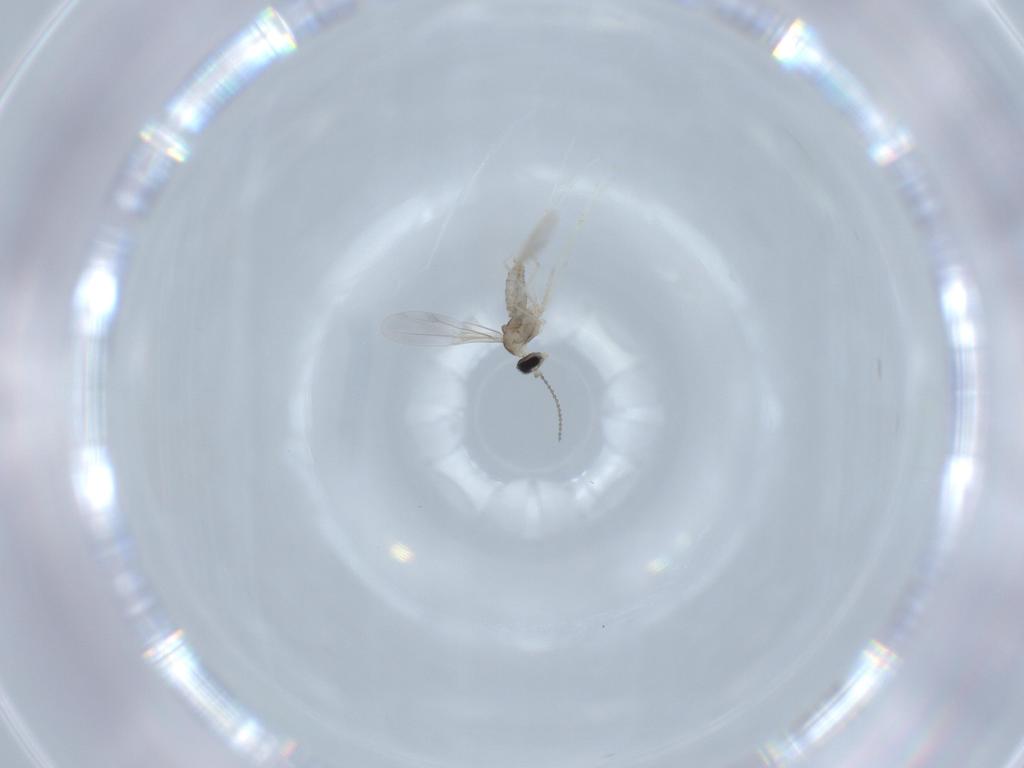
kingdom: Animalia
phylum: Arthropoda
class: Insecta
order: Diptera
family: Cecidomyiidae
